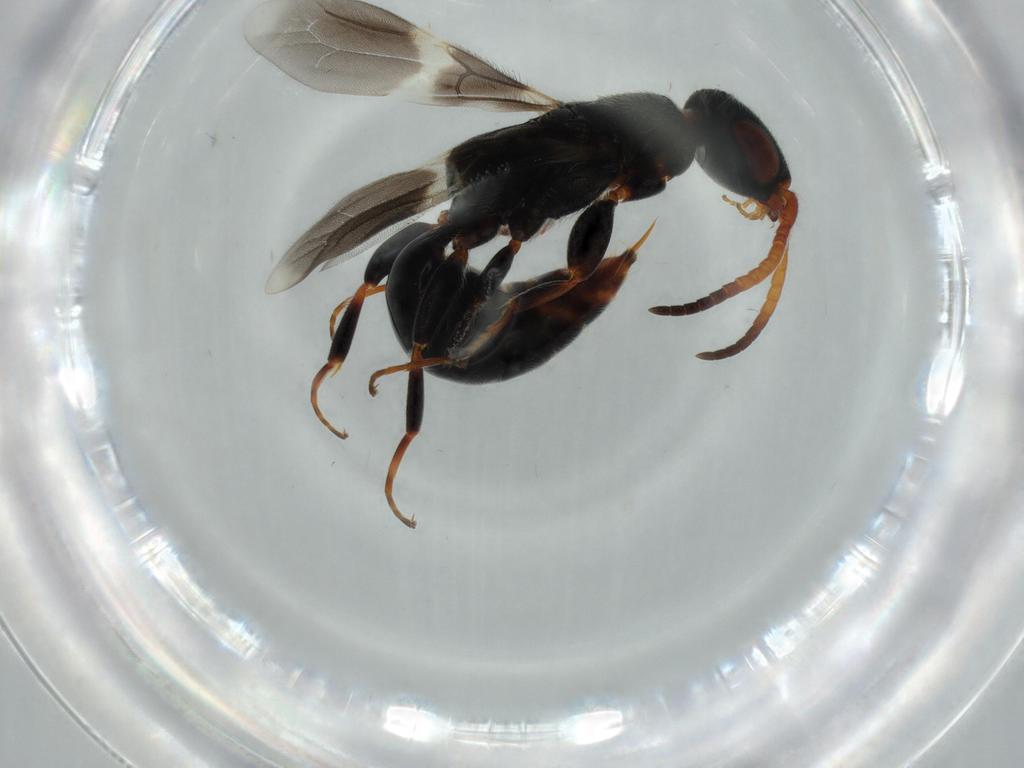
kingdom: Animalia
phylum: Arthropoda
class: Insecta
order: Hymenoptera
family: Bethylidae
